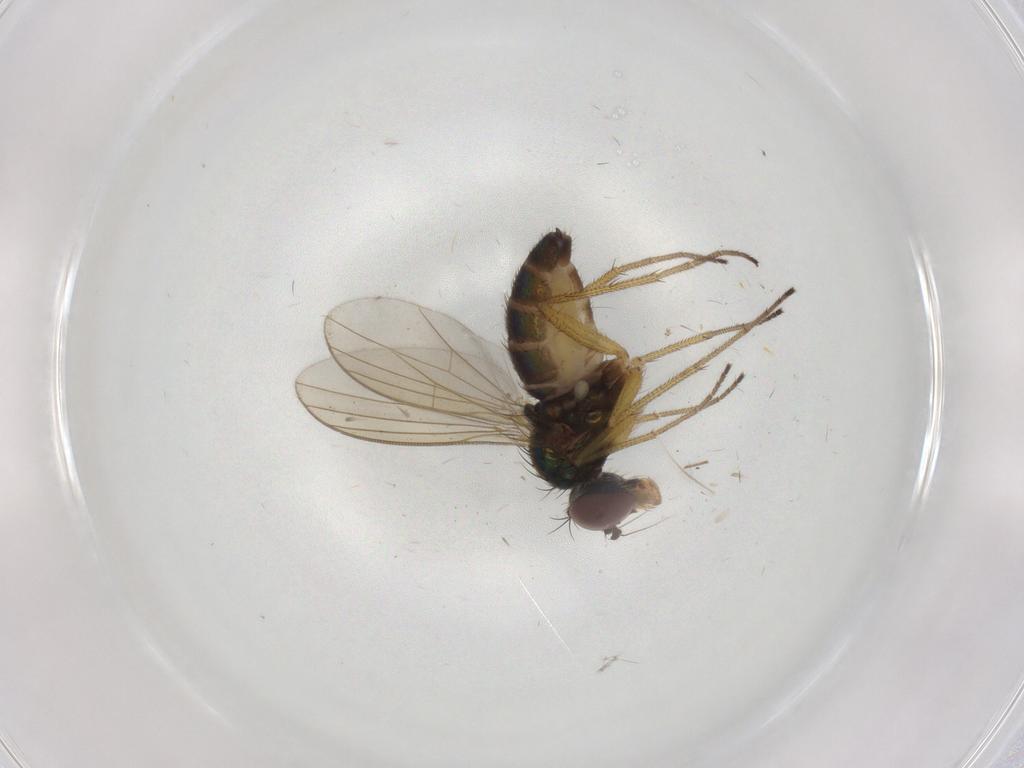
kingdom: Animalia
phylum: Arthropoda
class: Insecta
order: Diptera
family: Dolichopodidae
